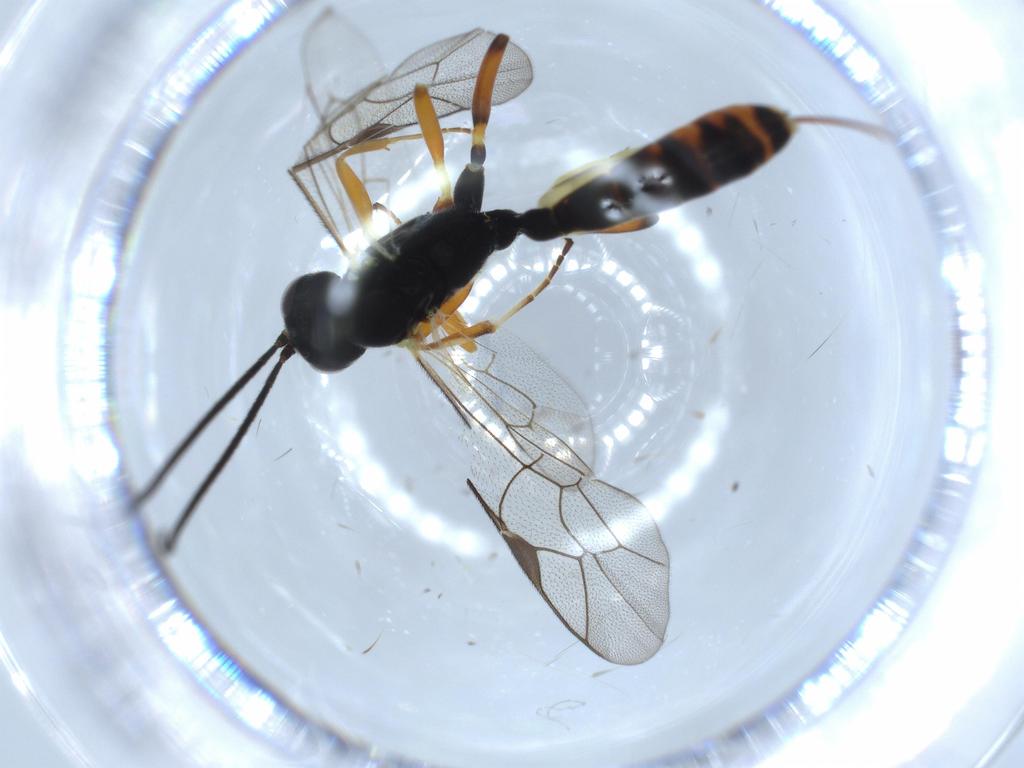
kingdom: Animalia
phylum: Arthropoda
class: Insecta
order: Hymenoptera
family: Ichneumonidae
